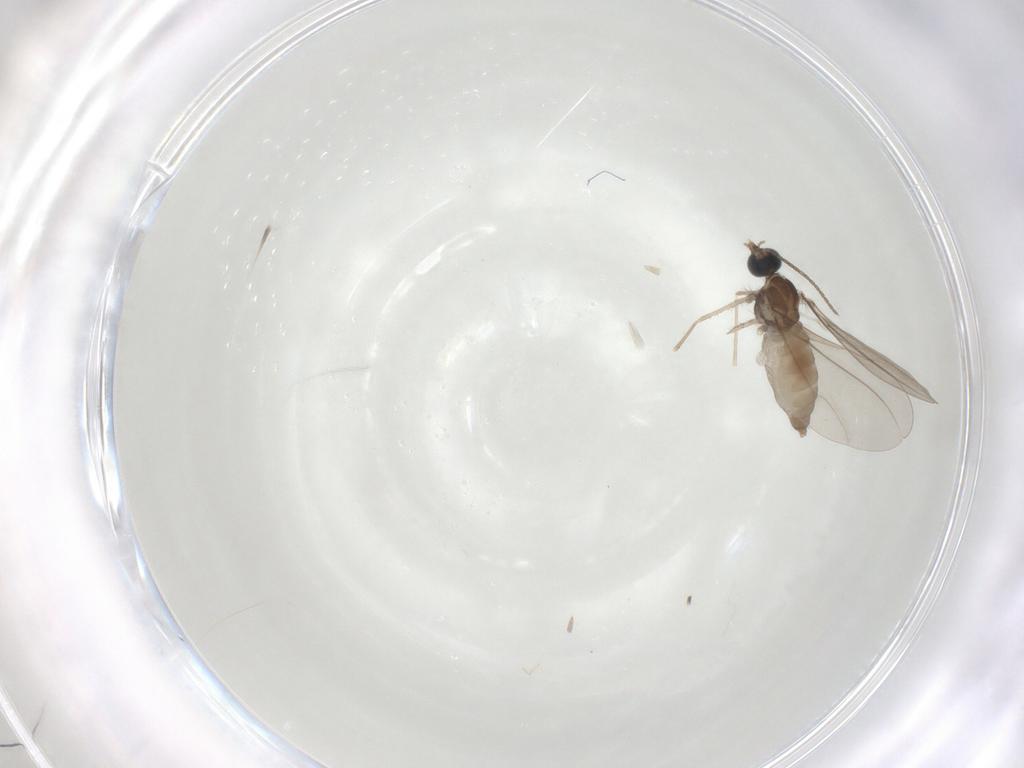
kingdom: Animalia
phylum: Arthropoda
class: Insecta
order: Diptera
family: Cecidomyiidae
